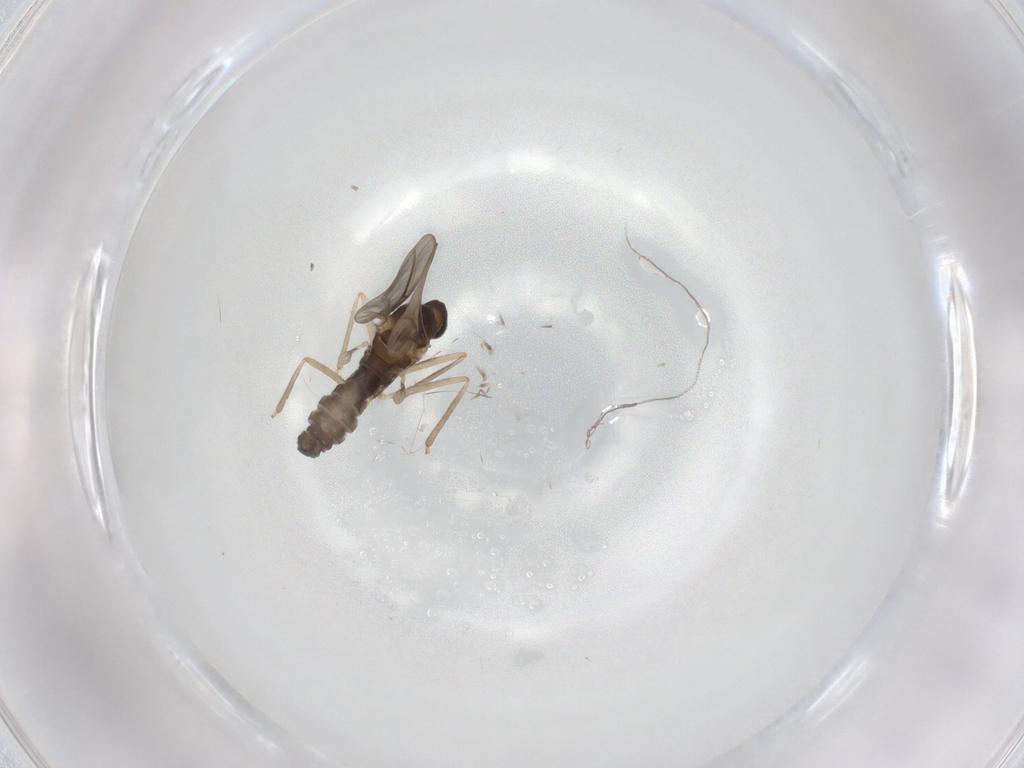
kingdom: Animalia
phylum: Arthropoda
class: Insecta
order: Diptera
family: Cecidomyiidae
